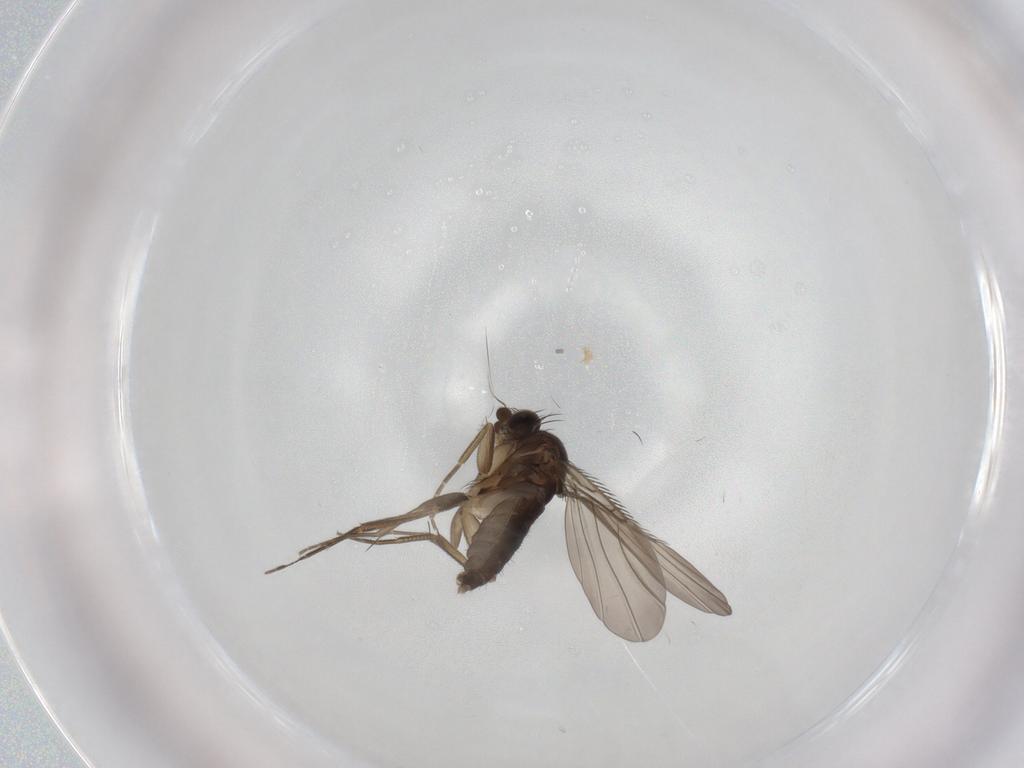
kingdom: Animalia
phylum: Arthropoda
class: Insecta
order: Diptera
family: Phoridae
